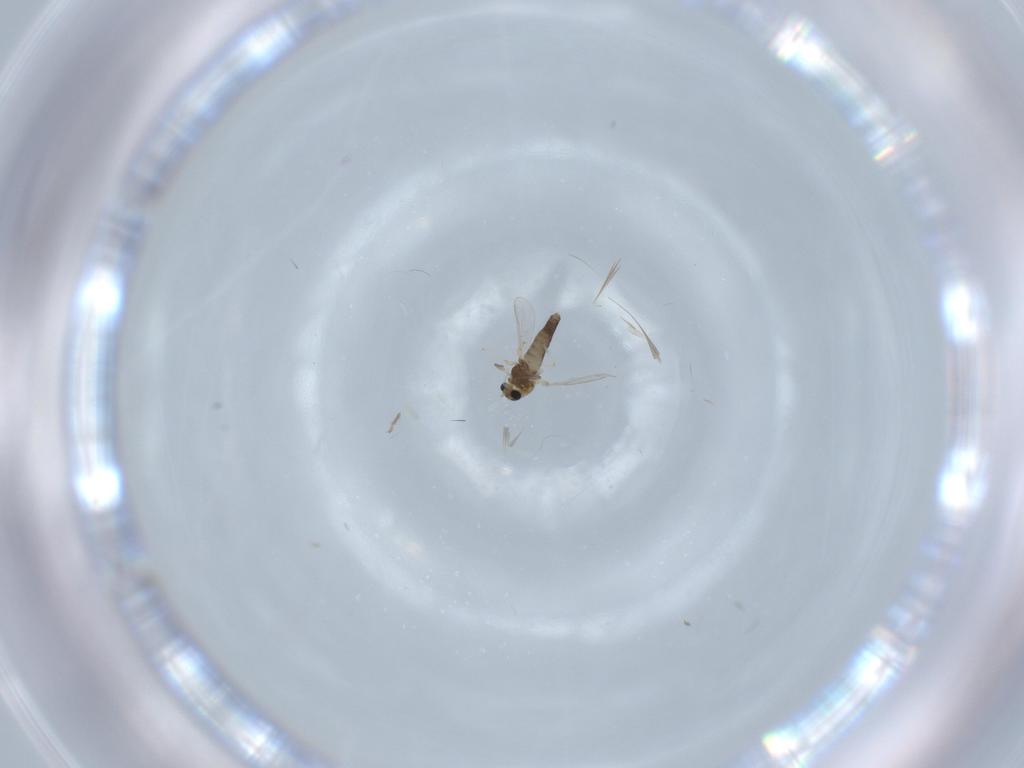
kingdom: Animalia
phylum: Arthropoda
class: Insecta
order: Diptera
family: Chironomidae
